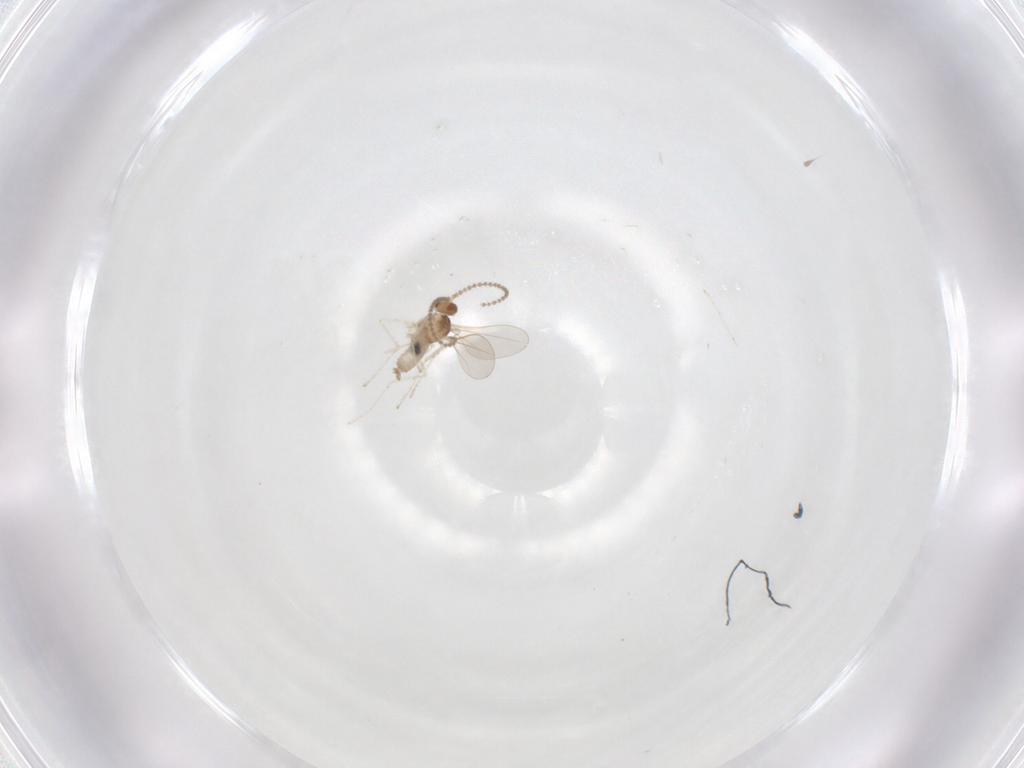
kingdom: Animalia
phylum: Arthropoda
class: Insecta
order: Diptera
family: Cecidomyiidae
